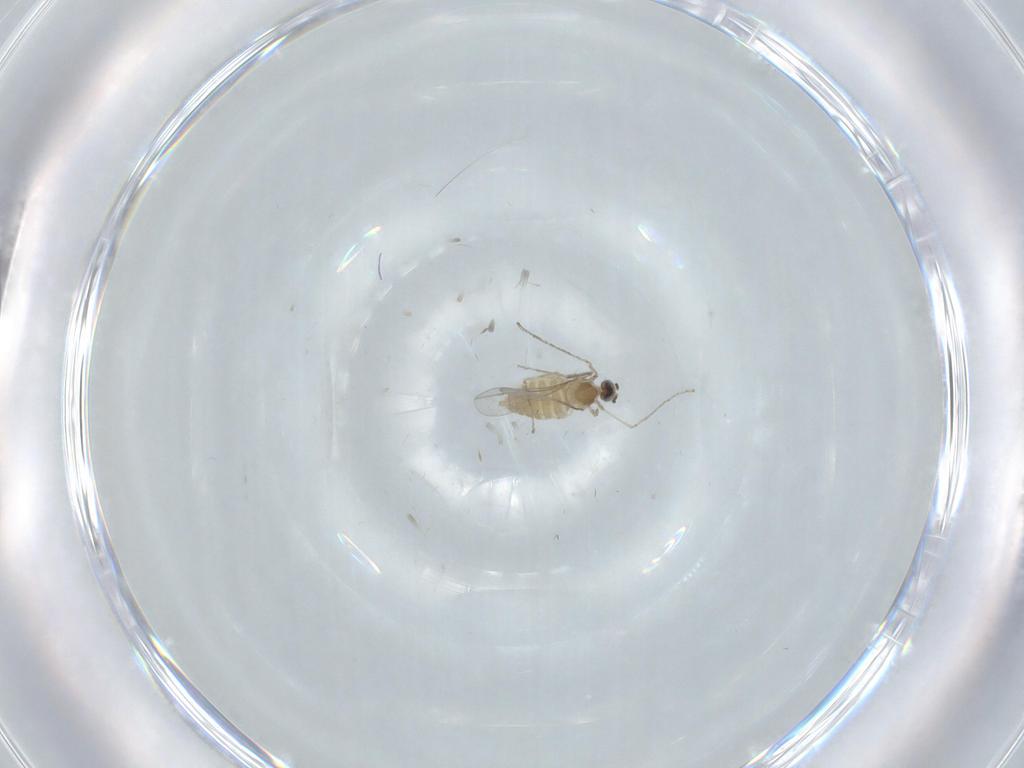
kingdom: Animalia
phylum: Arthropoda
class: Insecta
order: Diptera
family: Cecidomyiidae
